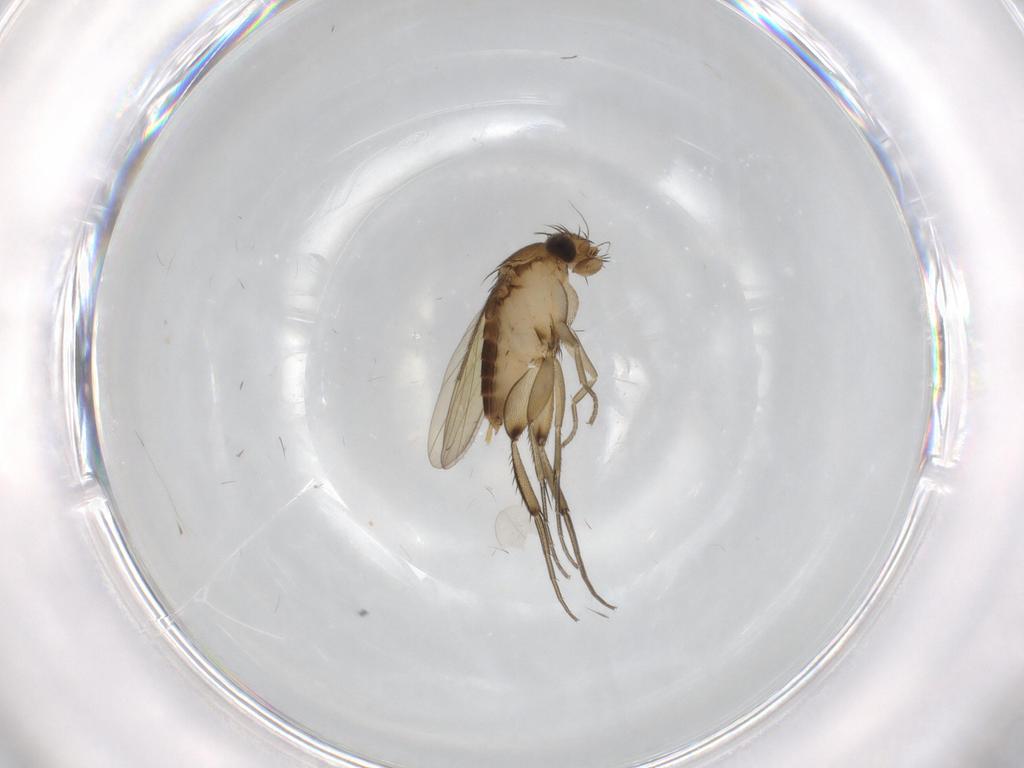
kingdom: Animalia
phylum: Arthropoda
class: Insecta
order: Diptera
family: Phoridae
